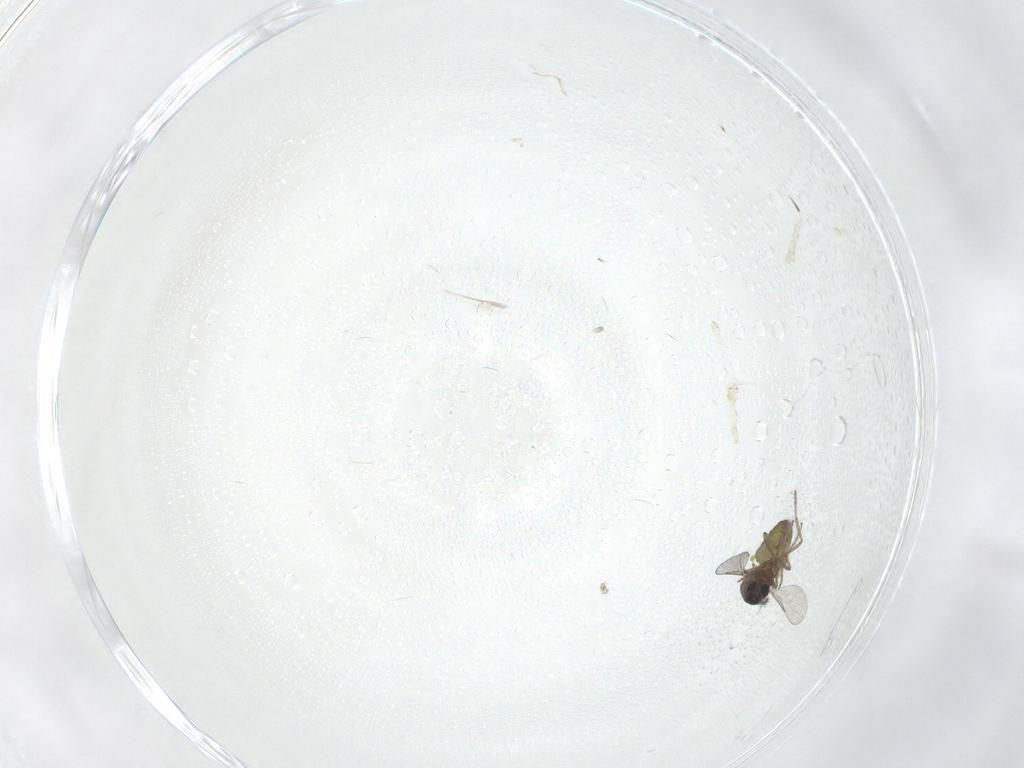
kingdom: Animalia
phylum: Arthropoda
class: Insecta
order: Diptera
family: Ceratopogonidae
